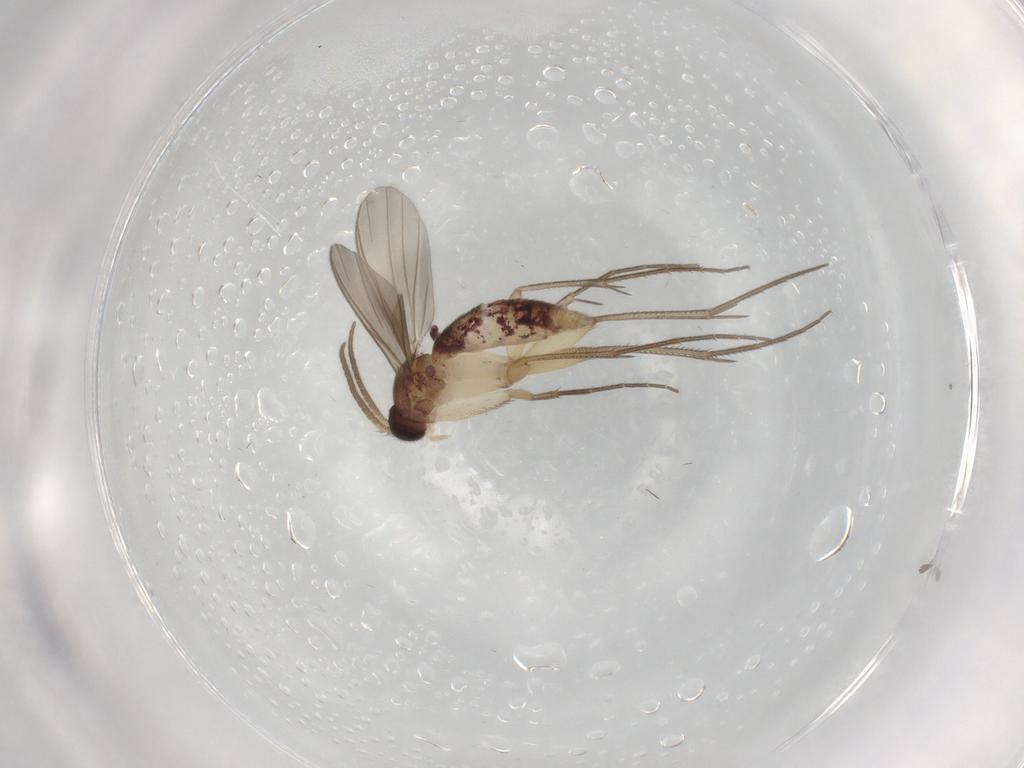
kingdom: Animalia
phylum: Arthropoda
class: Insecta
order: Diptera
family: Mycetophilidae
